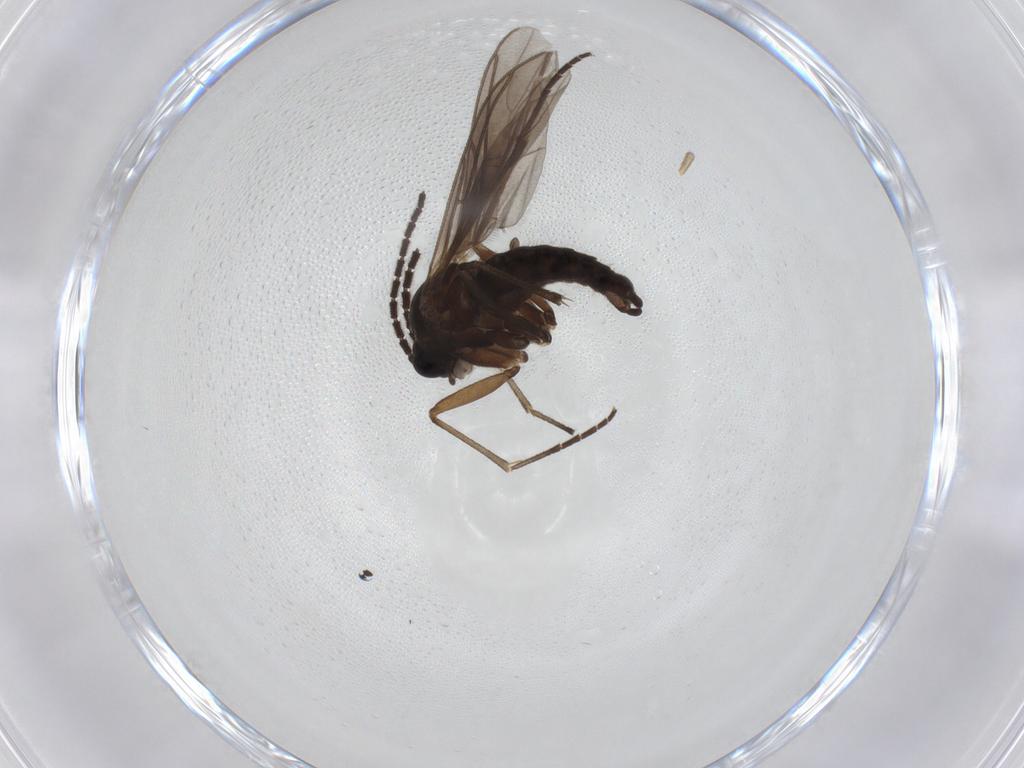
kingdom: Animalia
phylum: Arthropoda
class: Insecta
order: Diptera
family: Sciaridae
